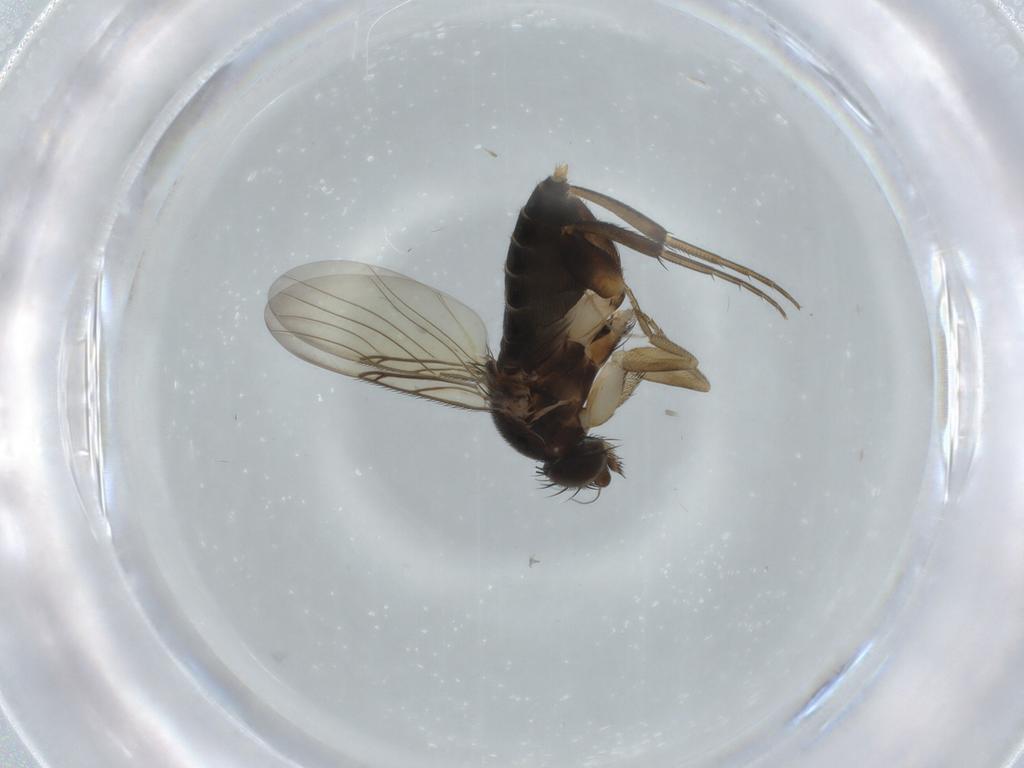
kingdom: Animalia
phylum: Arthropoda
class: Insecta
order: Diptera
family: Phoridae
